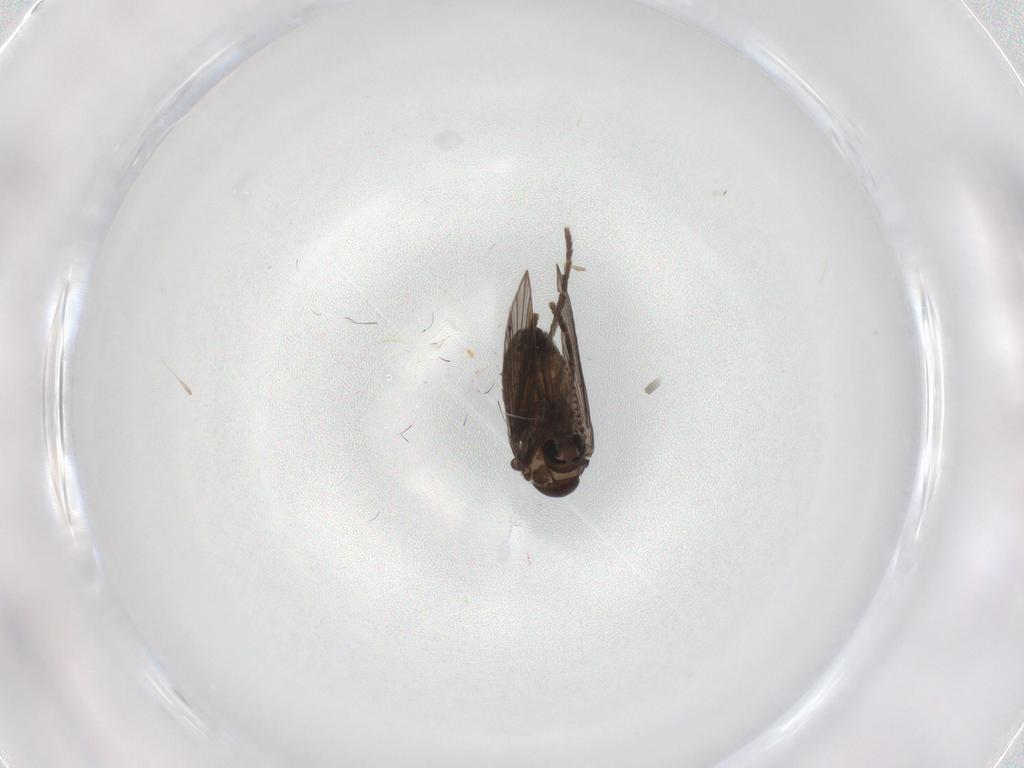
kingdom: Animalia
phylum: Arthropoda
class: Insecta
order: Diptera
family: Psychodidae
